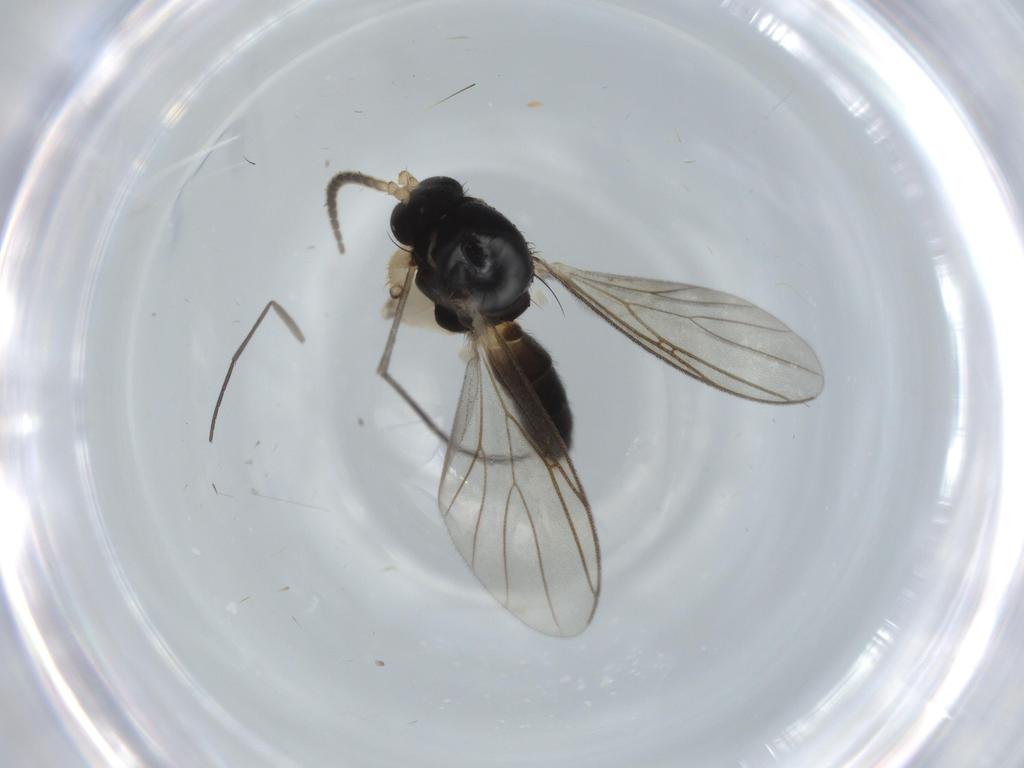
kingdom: Animalia
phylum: Arthropoda
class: Insecta
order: Diptera
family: Mycetophilidae
